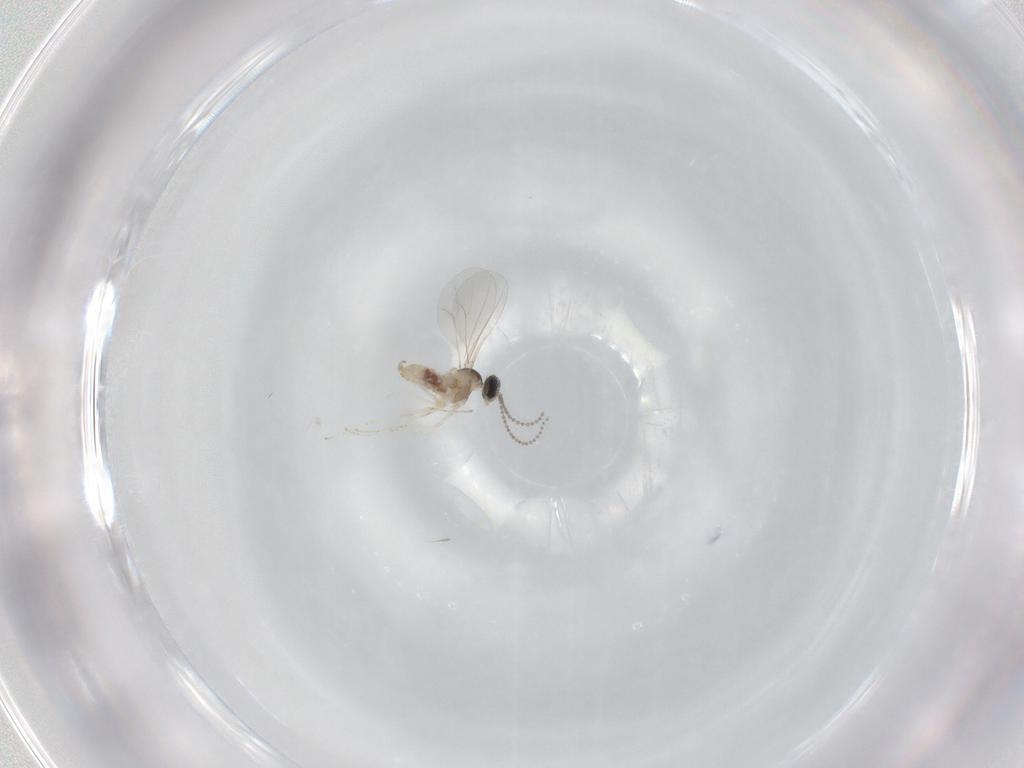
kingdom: Animalia
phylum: Arthropoda
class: Insecta
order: Diptera
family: Cecidomyiidae
